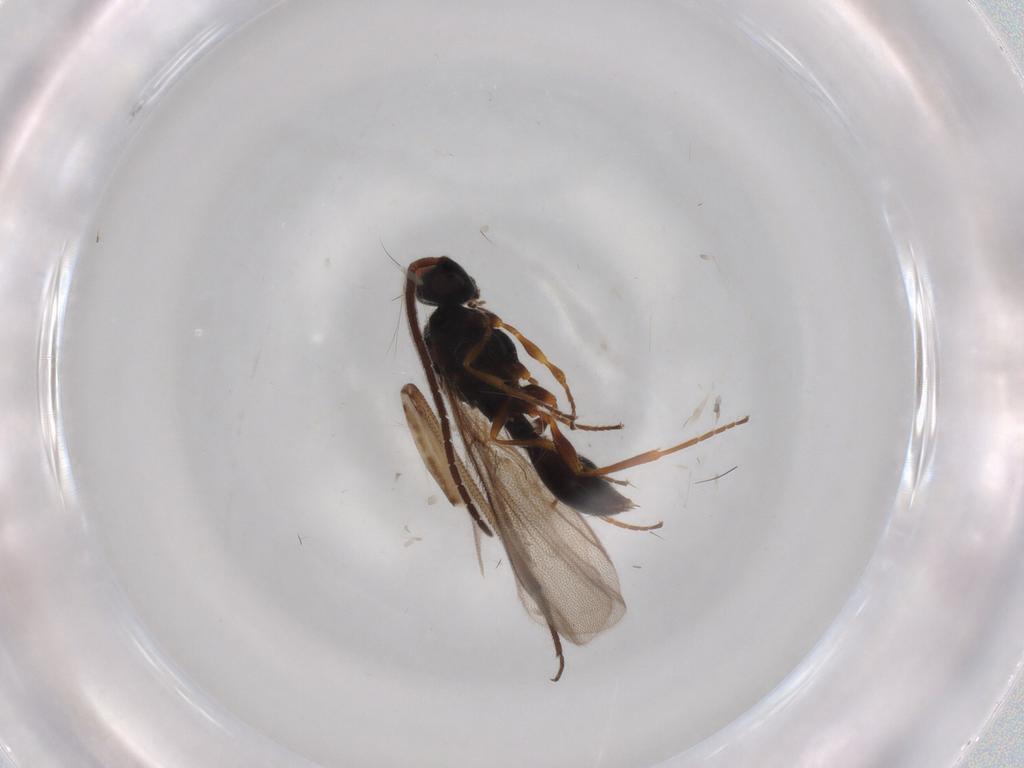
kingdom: Animalia
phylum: Arthropoda
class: Insecta
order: Hymenoptera
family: Diapriidae
